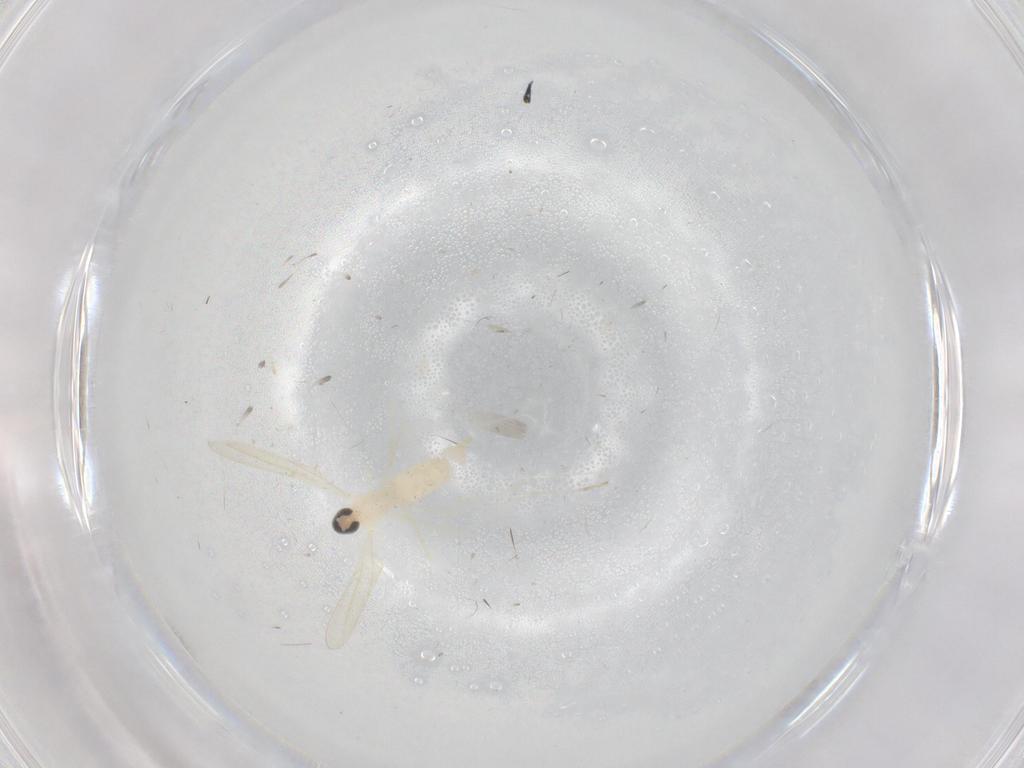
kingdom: Animalia
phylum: Arthropoda
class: Insecta
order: Diptera
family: Cecidomyiidae
